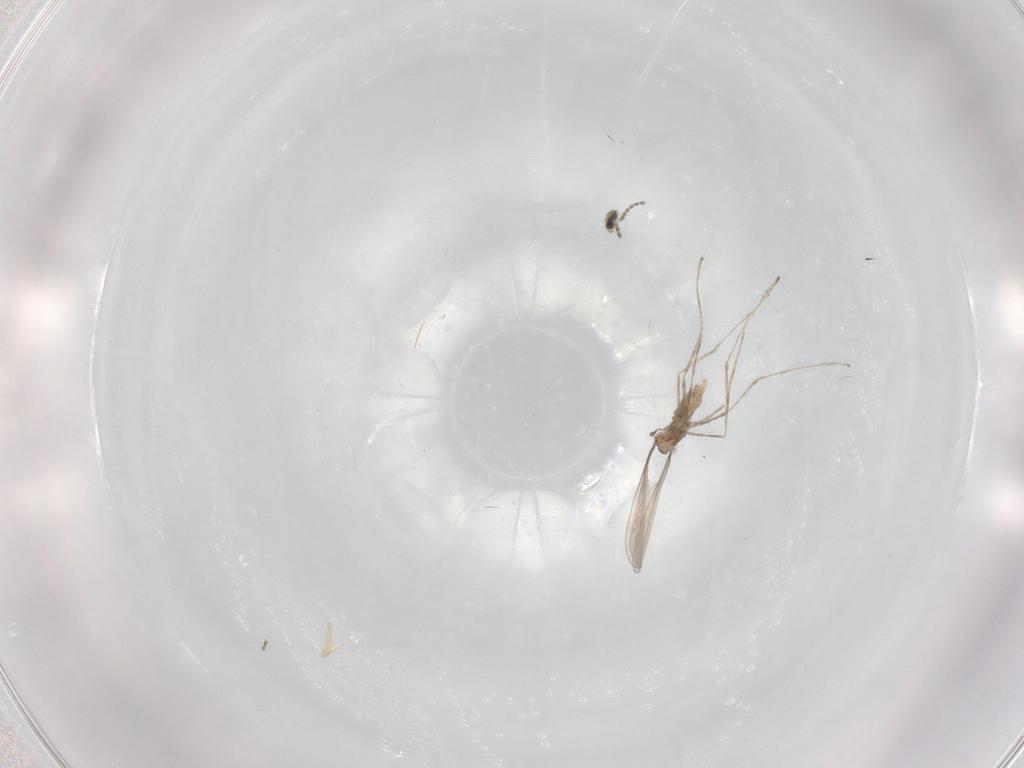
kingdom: Animalia
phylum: Arthropoda
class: Insecta
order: Diptera
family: Cecidomyiidae
